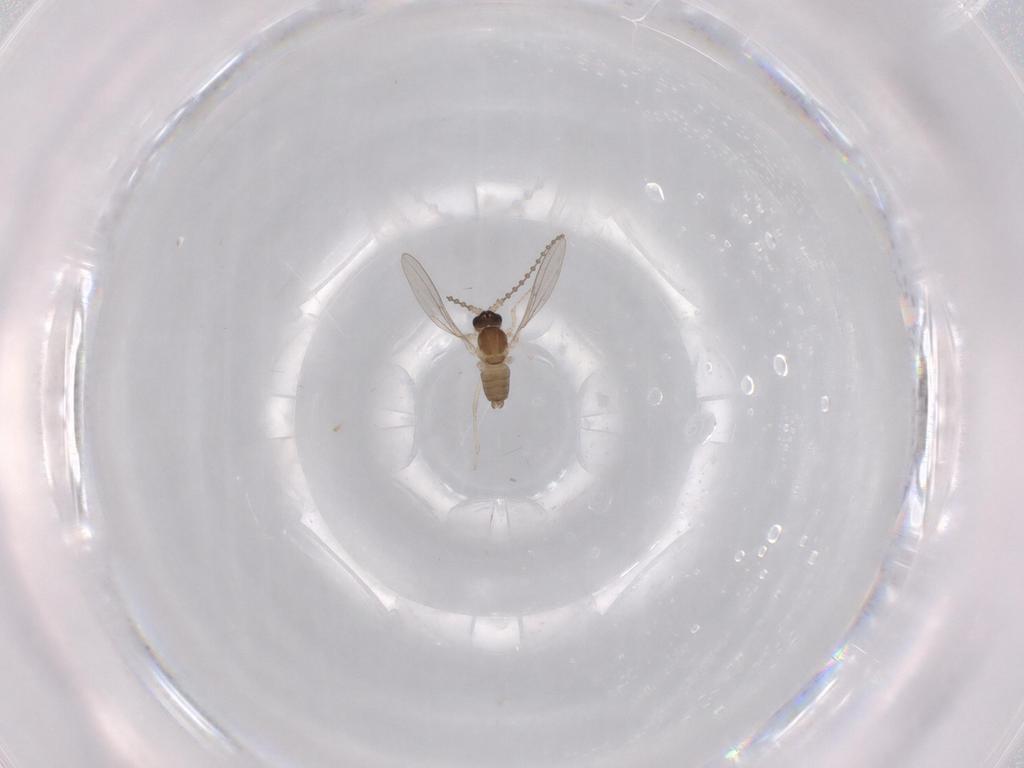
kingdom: Animalia
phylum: Arthropoda
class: Insecta
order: Diptera
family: Cecidomyiidae
